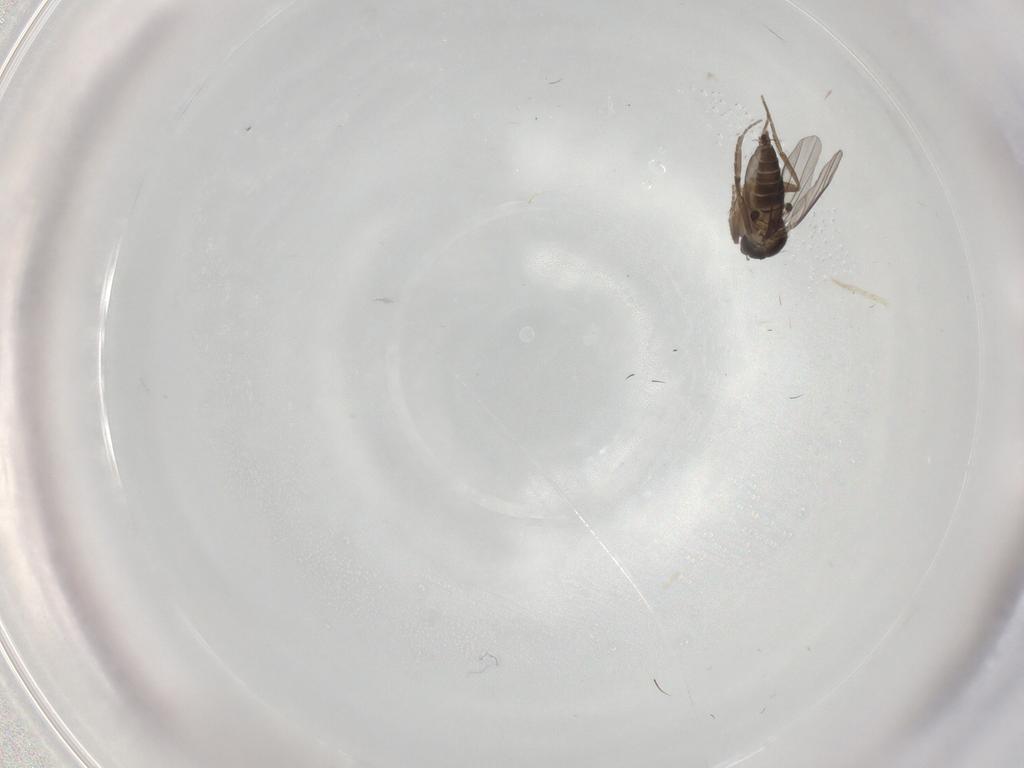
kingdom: Animalia
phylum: Arthropoda
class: Insecta
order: Diptera
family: Phoridae
